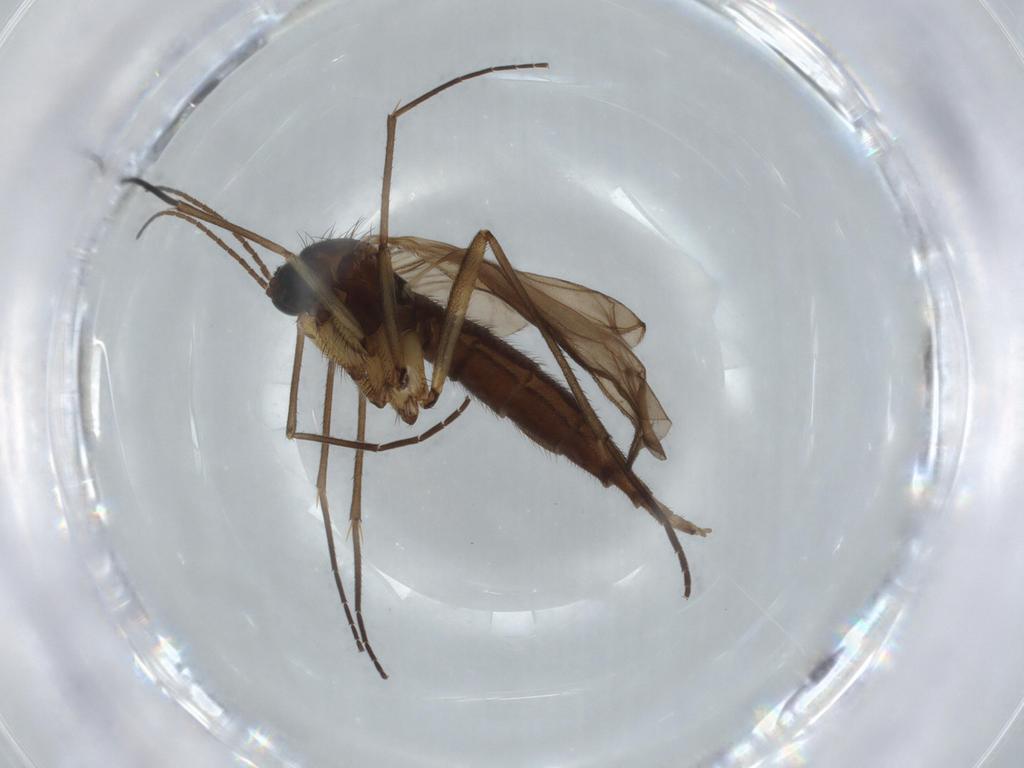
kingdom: Animalia
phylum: Arthropoda
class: Insecta
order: Diptera
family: Sciaridae
